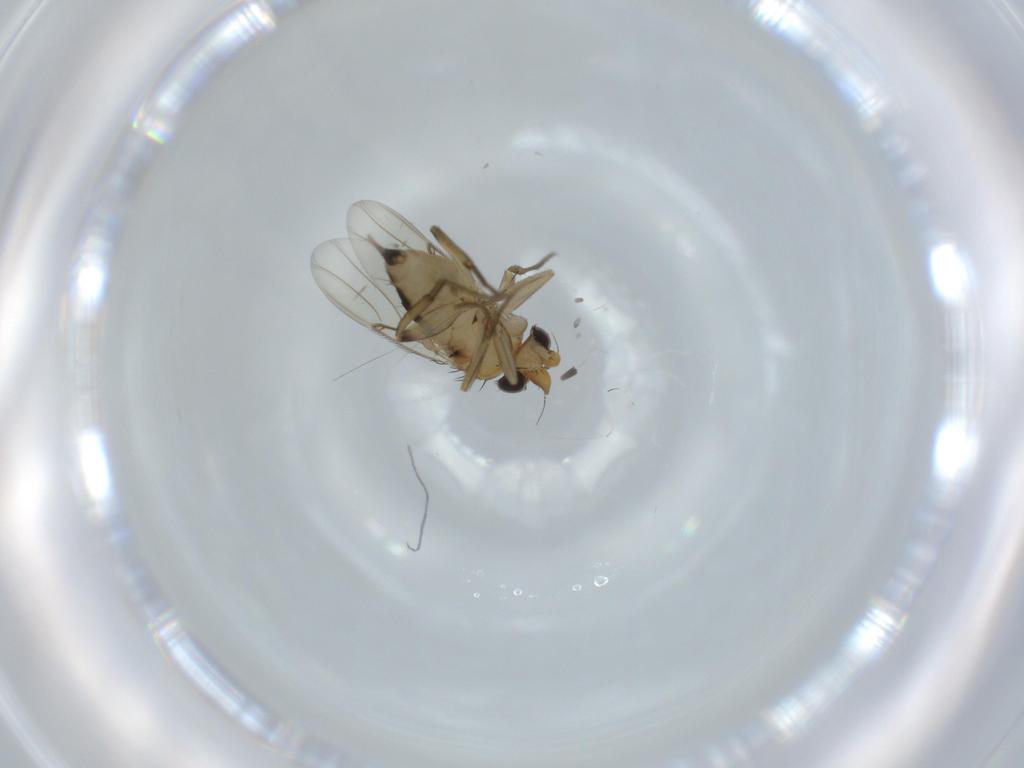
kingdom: Animalia
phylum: Arthropoda
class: Insecta
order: Diptera
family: Limoniidae
